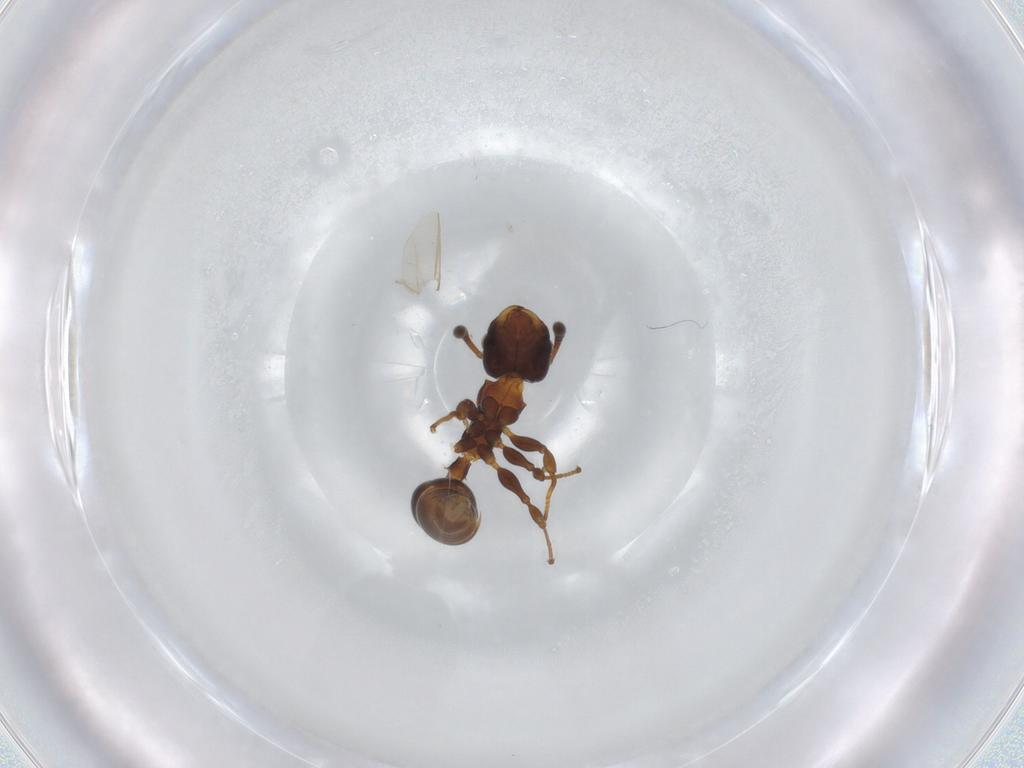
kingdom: Animalia
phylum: Arthropoda
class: Insecta
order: Hymenoptera
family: Formicidae
